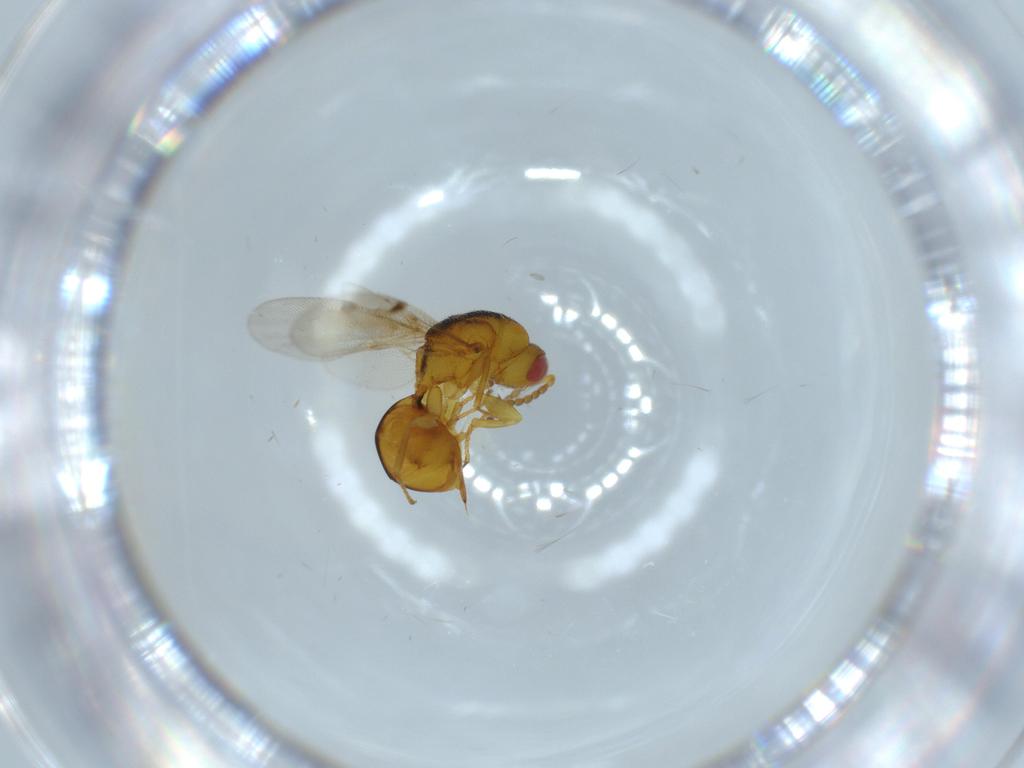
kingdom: Animalia
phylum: Arthropoda
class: Insecta
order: Hymenoptera
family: Eurytomidae
